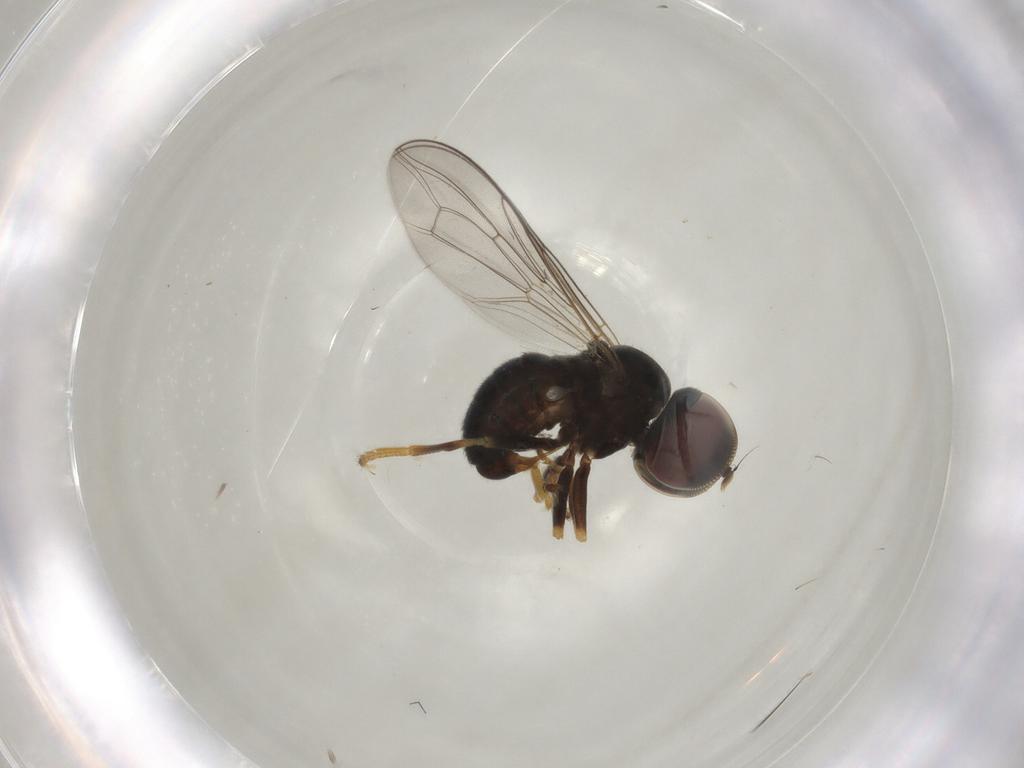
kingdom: Animalia
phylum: Arthropoda
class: Insecta
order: Diptera
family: Pipunculidae
